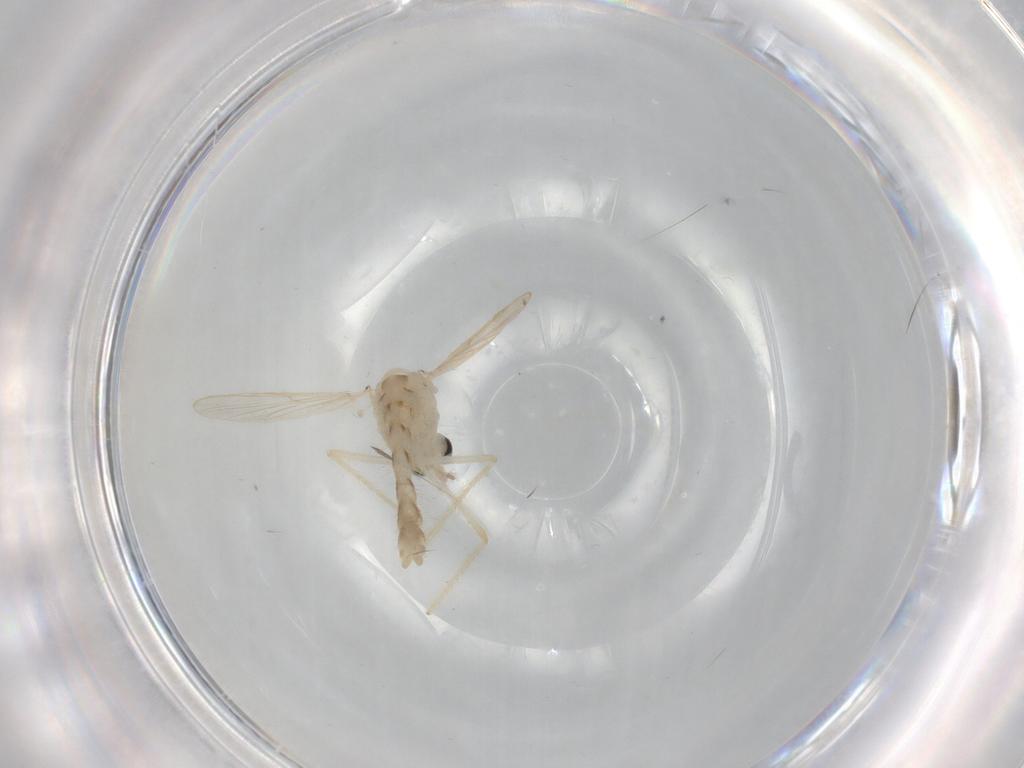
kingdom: Animalia
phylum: Arthropoda
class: Insecta
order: Diptera
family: Chironomidae
